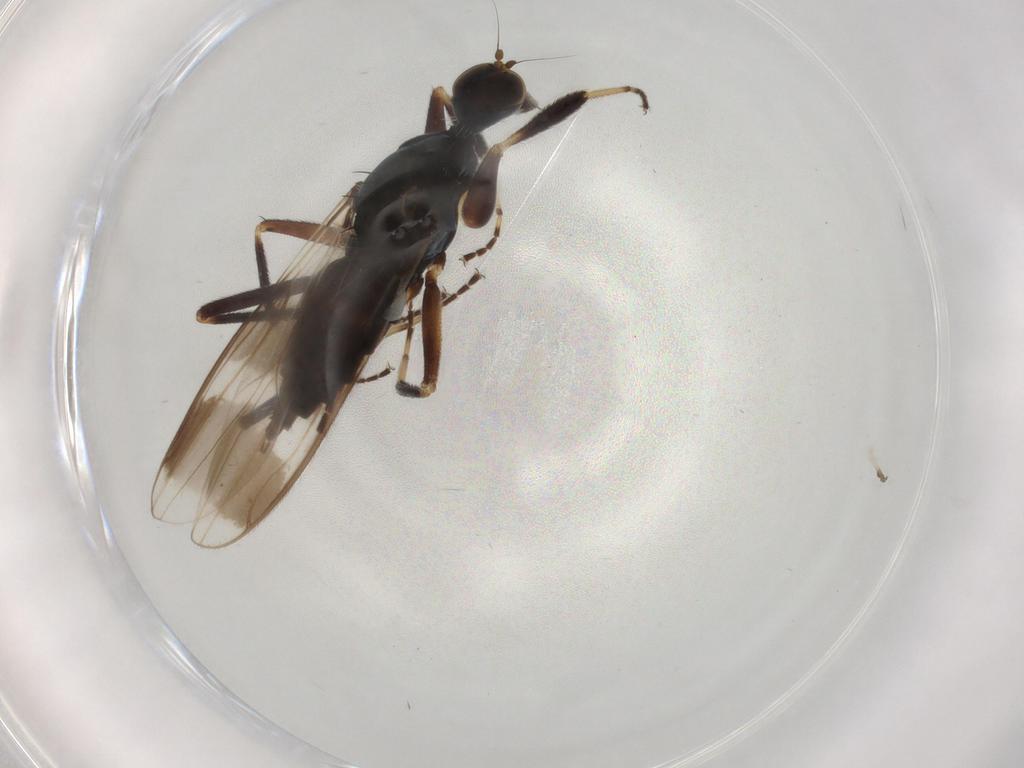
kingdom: Animalia
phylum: Arthropoda
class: Insecta
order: Diptera
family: Hybotidae
